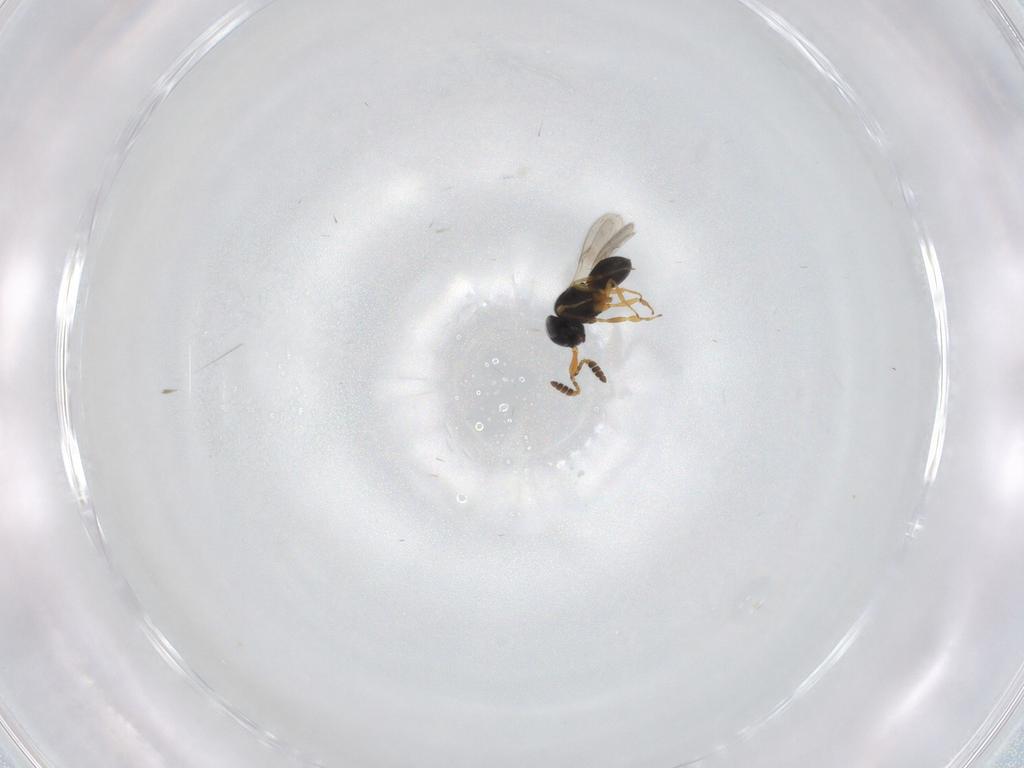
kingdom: Animalia
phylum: Arthropoda
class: Insecta
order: Hymenoptera
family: Scelionidae
